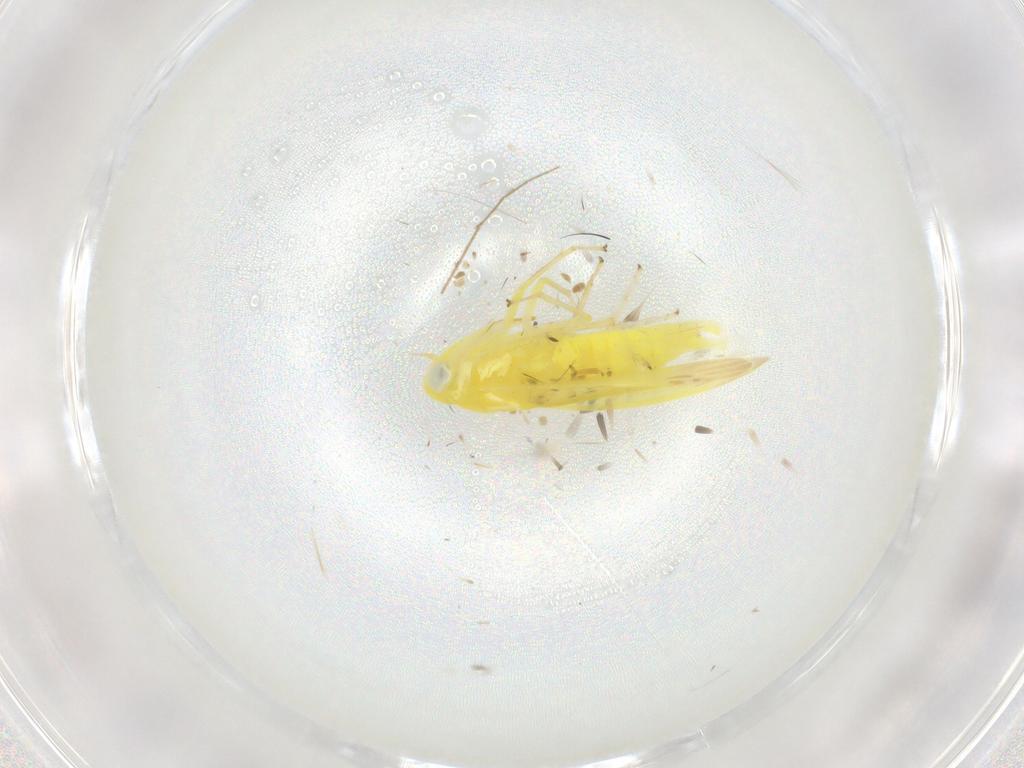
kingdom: Animalia
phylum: Arthropoda
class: Insecta
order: Hemiptera
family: Cicadellidae
